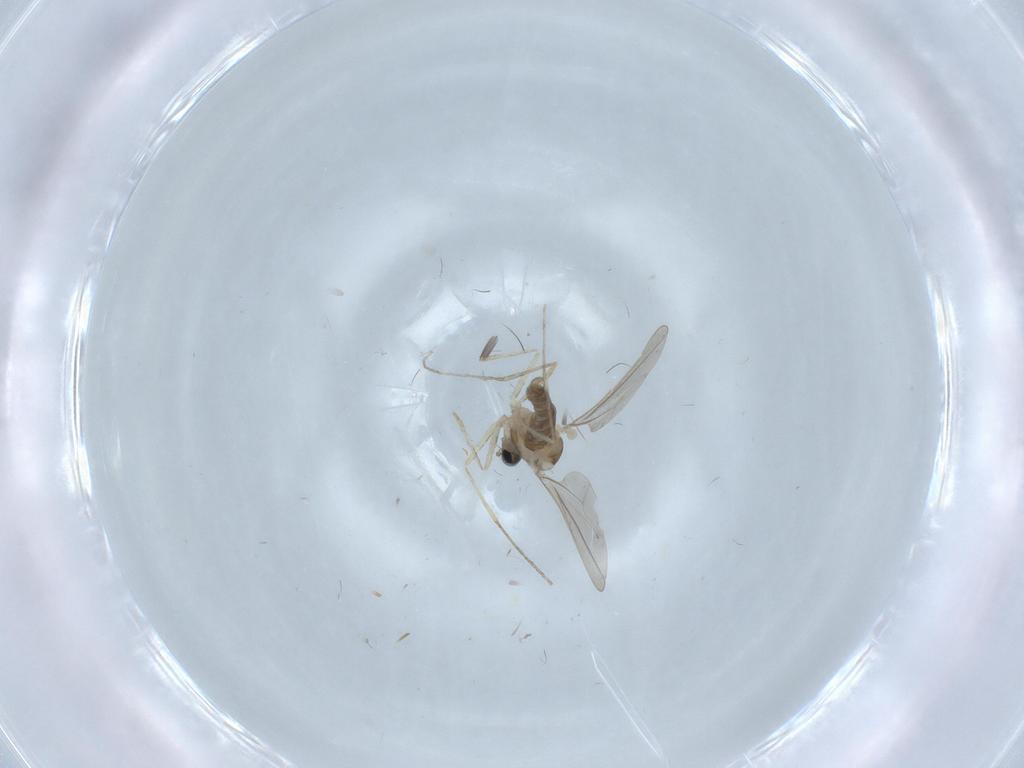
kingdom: Animalia
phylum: Arthropoda
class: Insecta
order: Diptera
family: Cecidomyiidae
